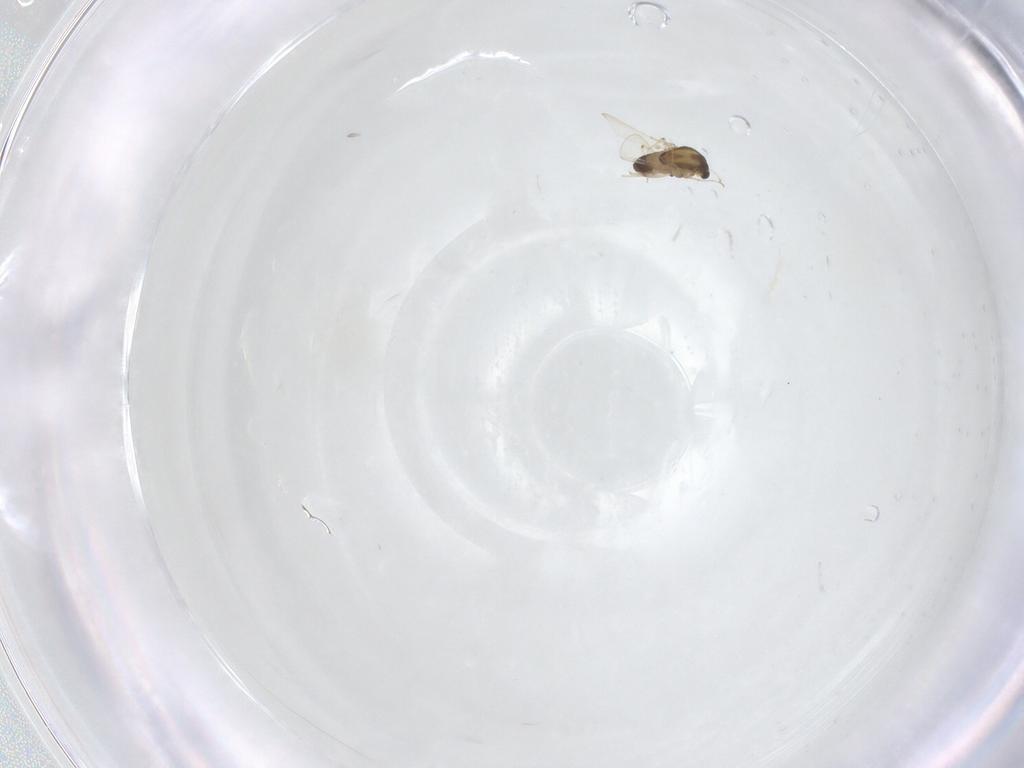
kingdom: Animalia
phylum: Arthropoda
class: Insecta
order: Diptera
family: Chironomidae
